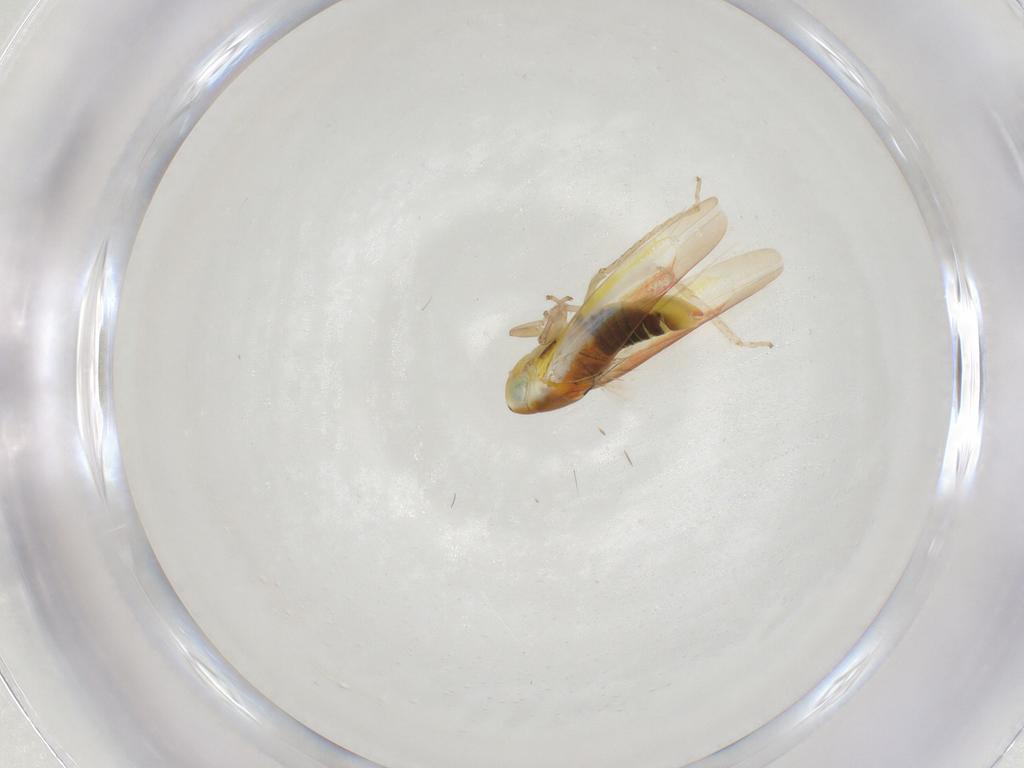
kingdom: Animalia
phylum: Arthropoda
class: Insecta
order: Hemiptera
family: Cicadellidae
